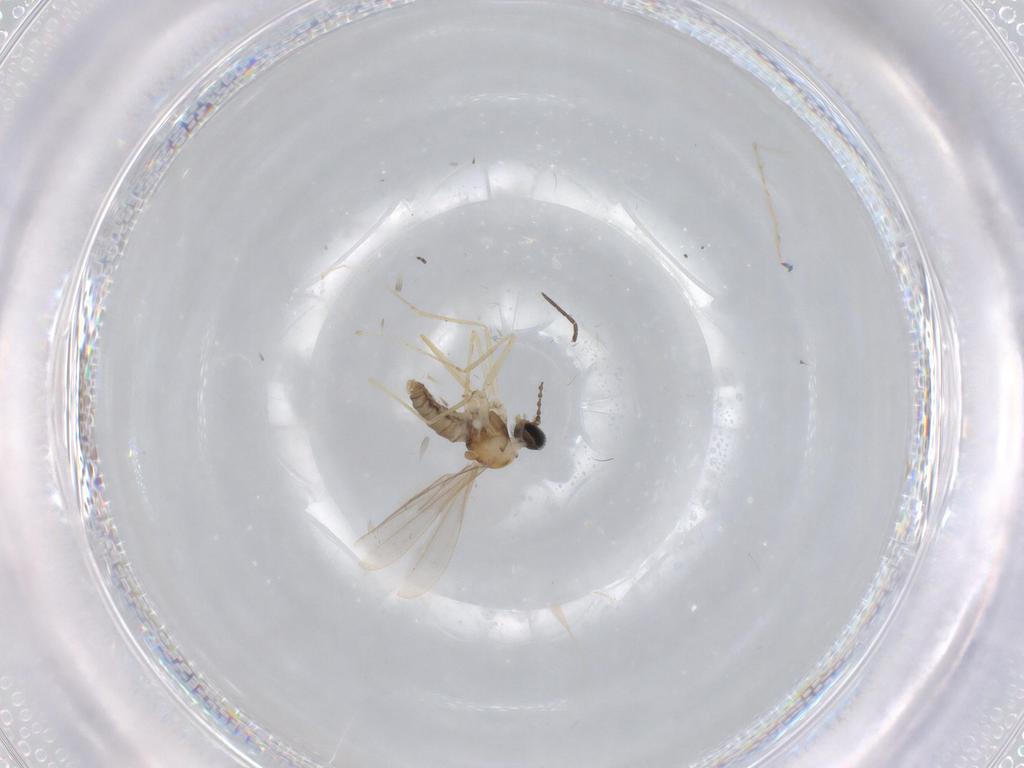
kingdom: Animalia
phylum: Arthropoda
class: Insecta
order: Diptera
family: Cecidomyiidae
